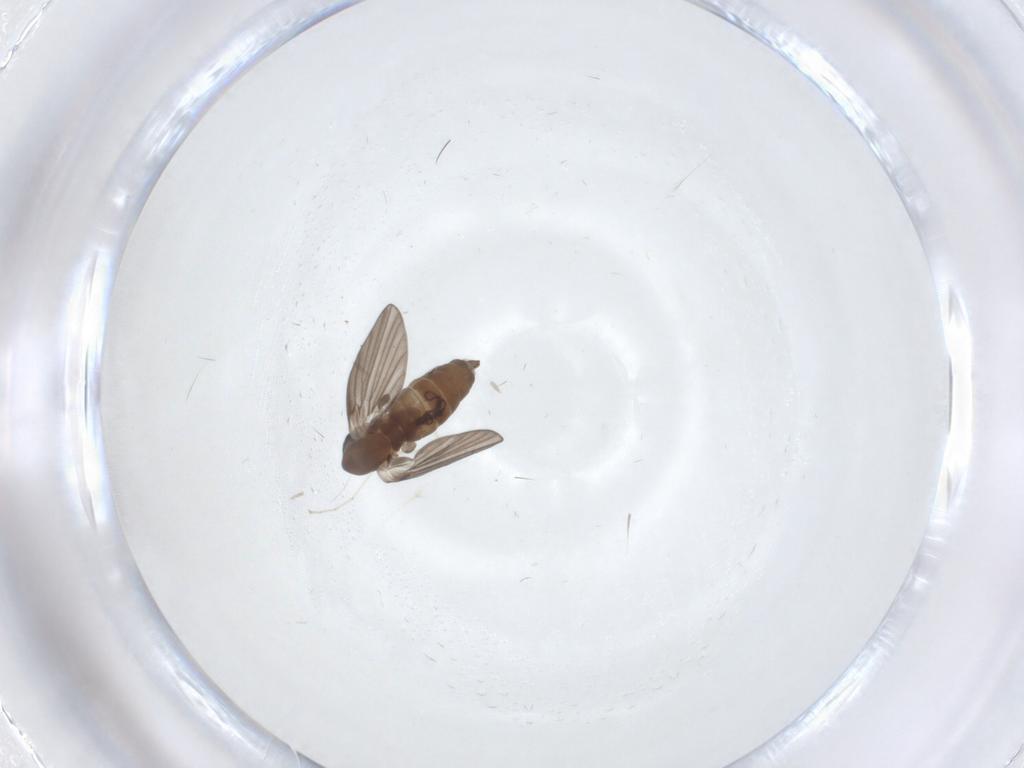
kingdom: Animalia
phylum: Arthropoda
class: Insecta
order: Diptera
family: Psychodidae
